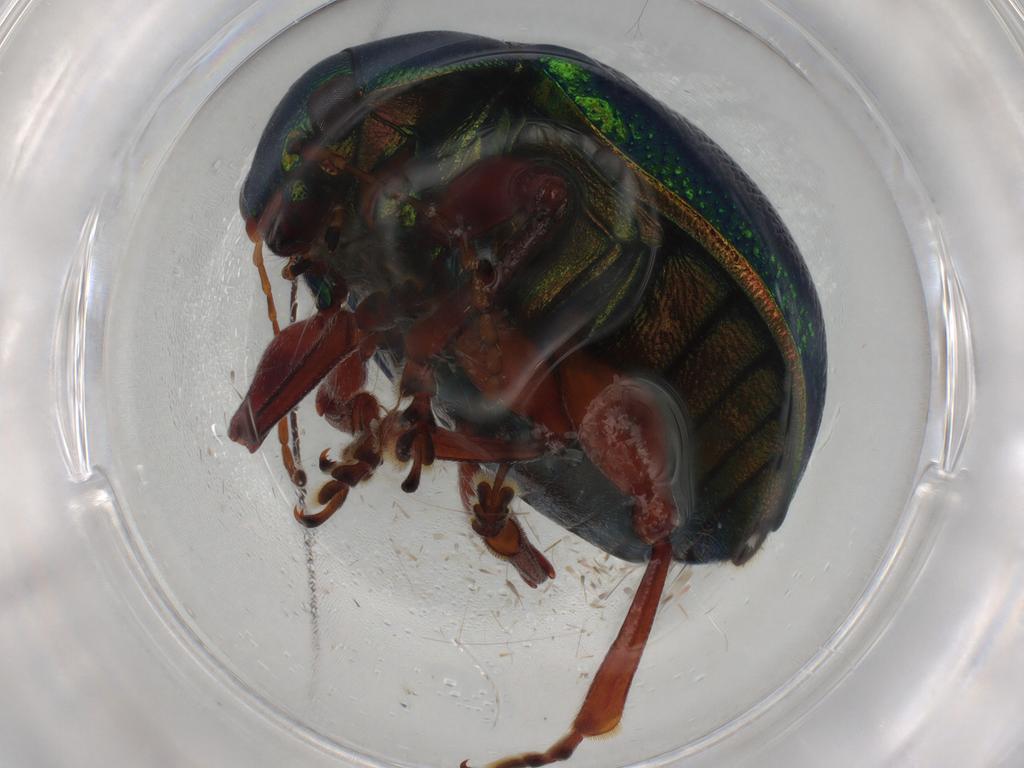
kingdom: Animalia
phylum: Arthropoda
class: Insecta
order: Coleoptera
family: Chrysomelidae
